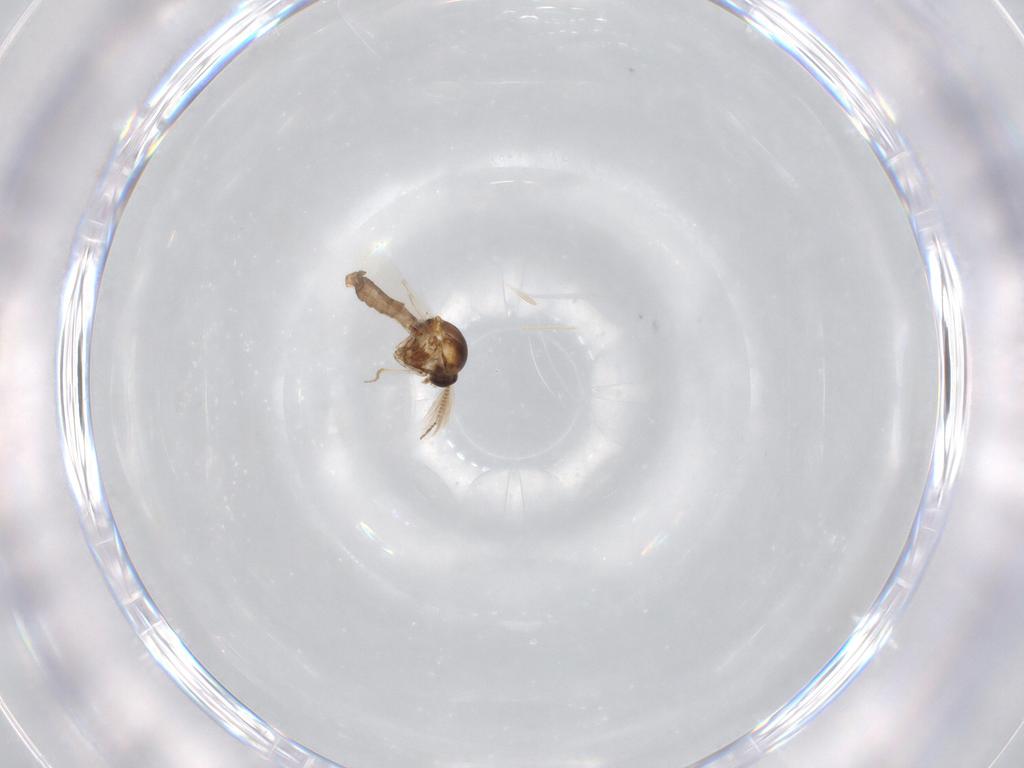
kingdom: Animalia
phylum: Arthropoda
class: Insecta
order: Diptera
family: Ceratopogonidae
